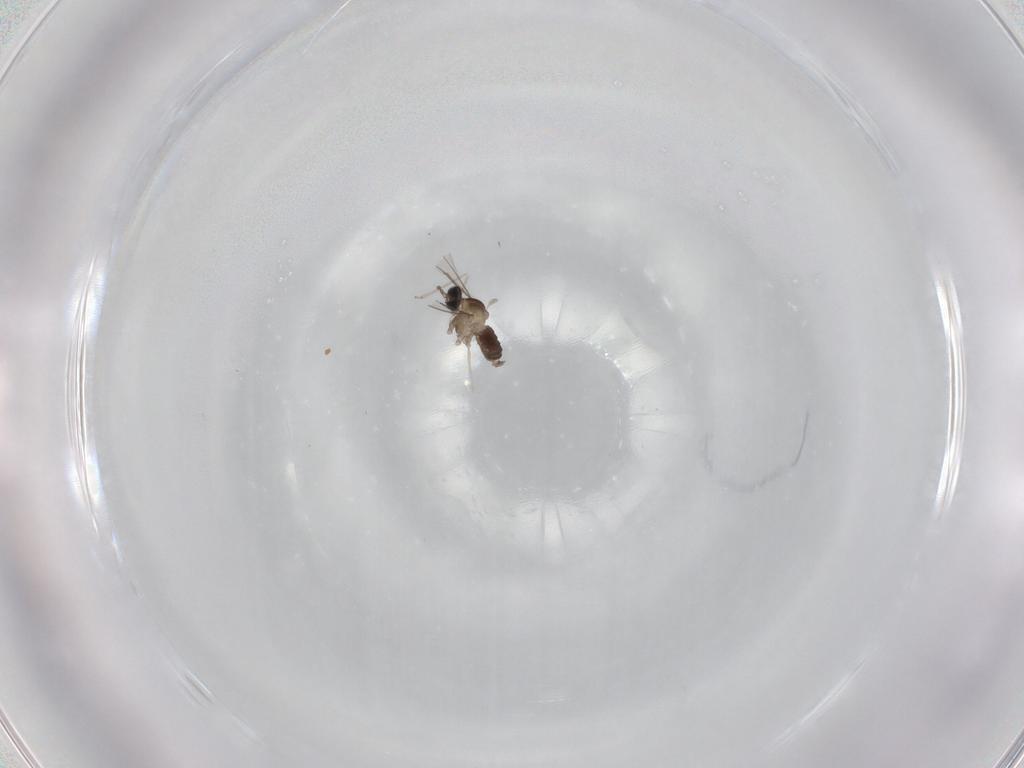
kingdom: Animalia
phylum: Arthropoda
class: Insecta
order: Diptera
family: Cecidomyiidae
